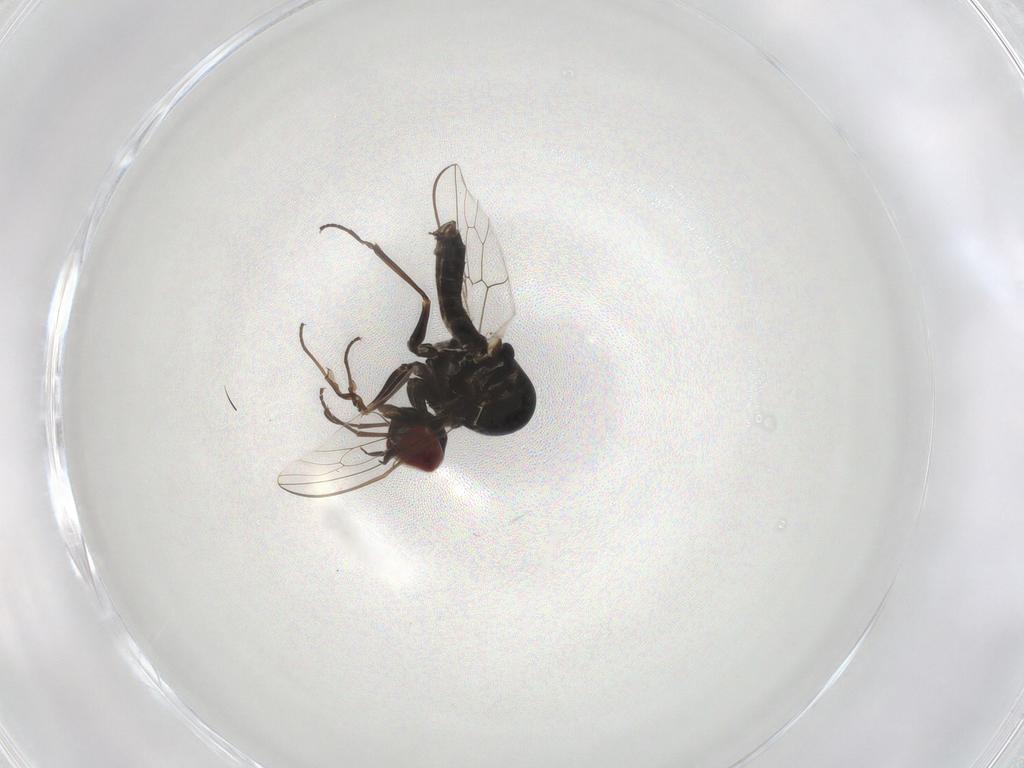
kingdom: Animalia
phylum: Arthropoda
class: Insecta
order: Diptera
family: Bombyliidae
